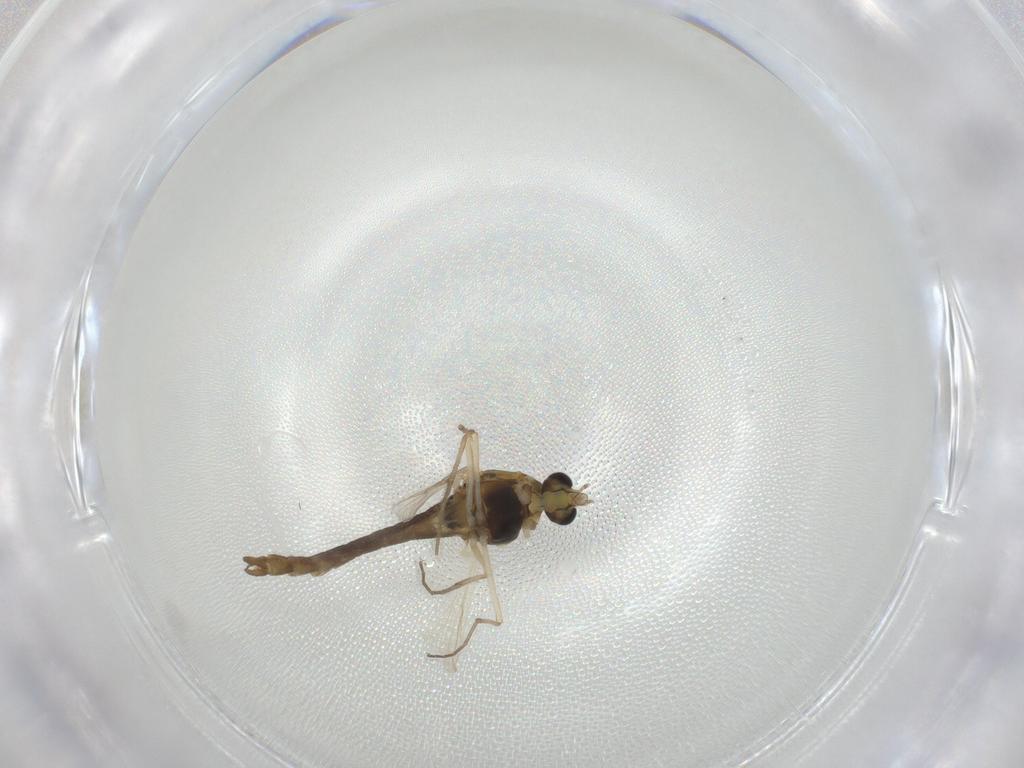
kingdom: Animalia
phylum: Arthropoda
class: Insecta
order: Diptera
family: Chironomidae
